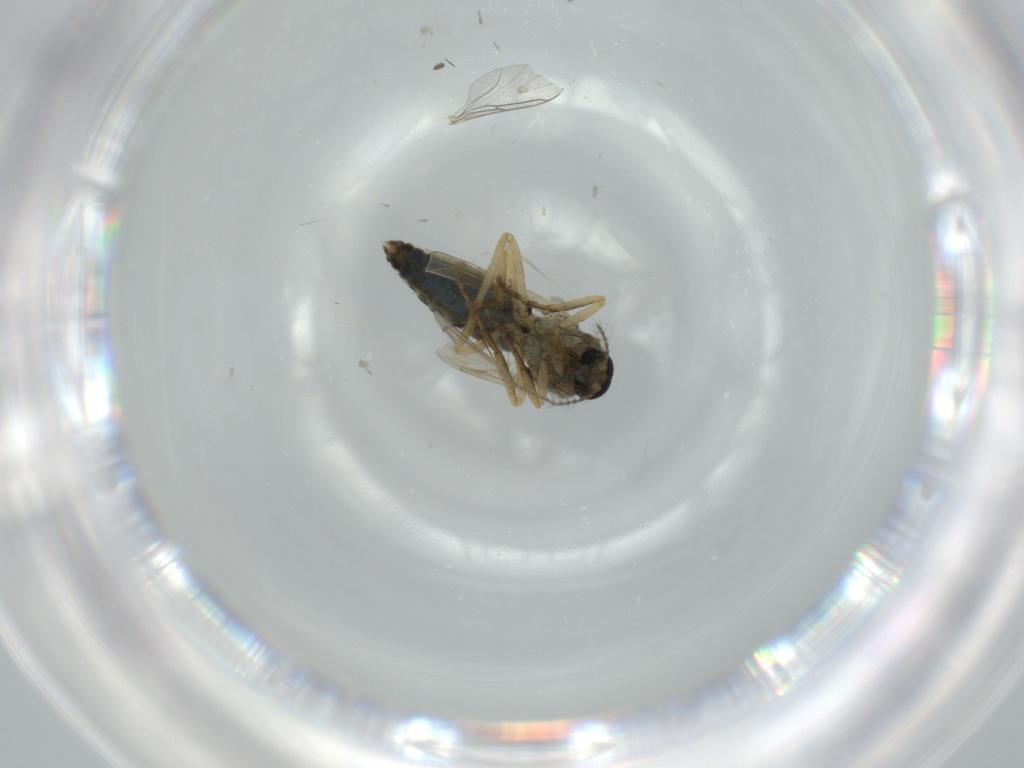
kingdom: Animalia
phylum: Arthropoda
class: Insecta
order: Diptera
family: Ceratopogonidae
